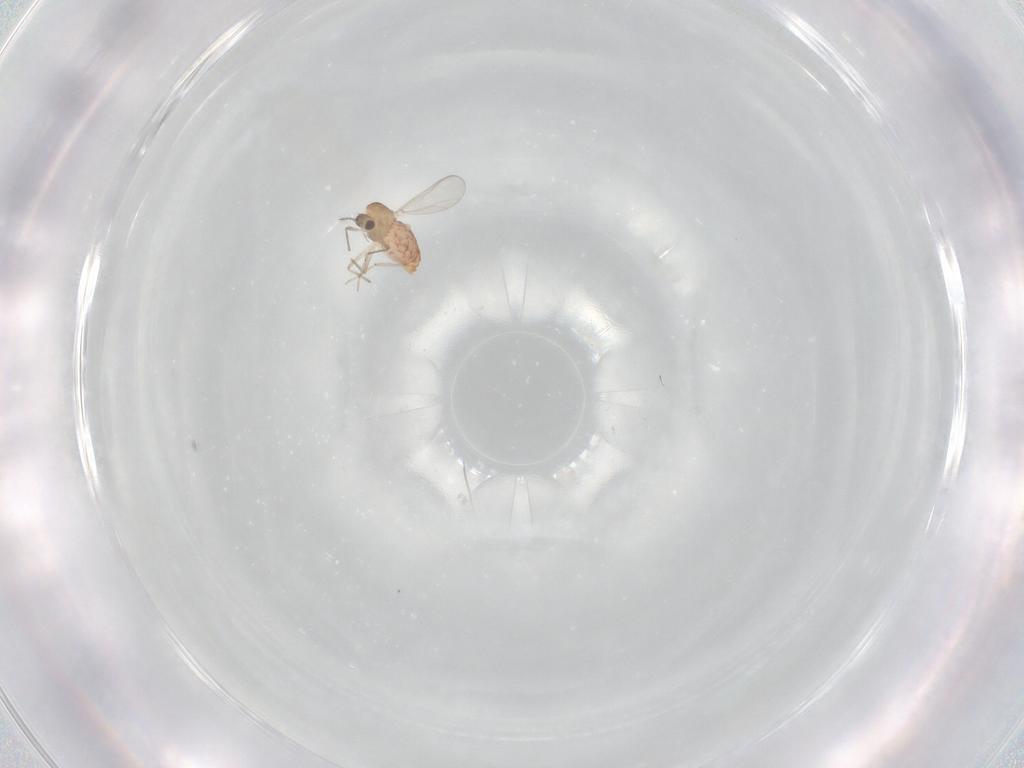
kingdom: Animalia
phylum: Arthropoda
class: Insecta
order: Diptera
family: Chironomidae
